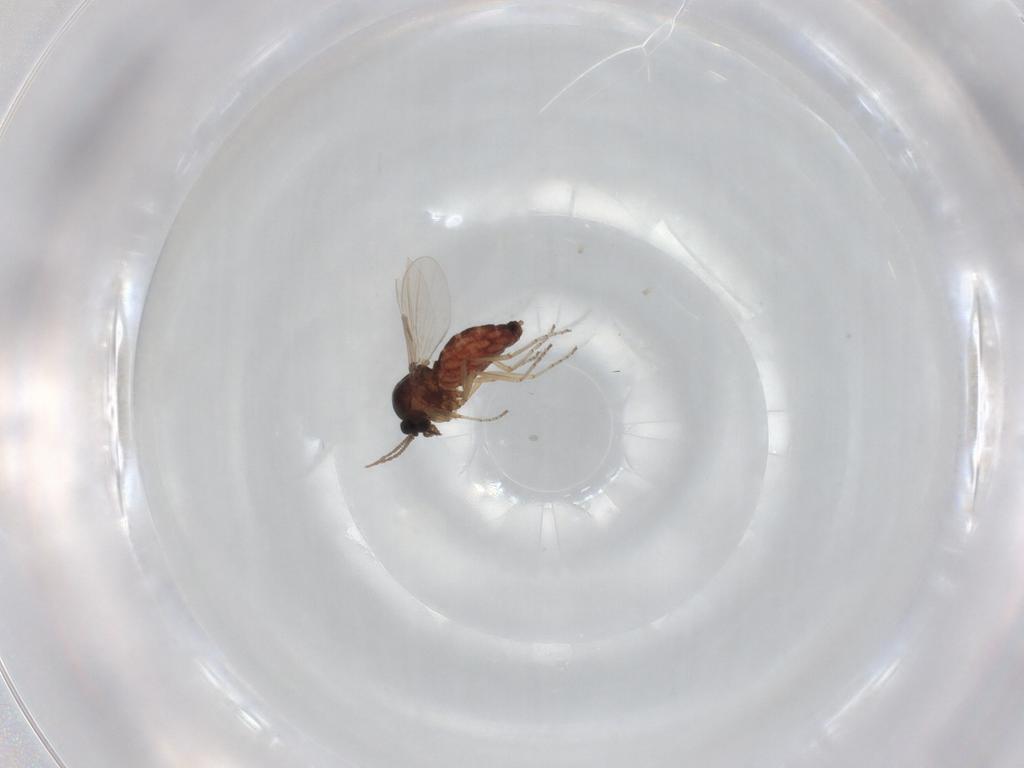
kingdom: Animalia
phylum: Arthropoda
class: Insecta
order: Diptera
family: Ceratopogonidae
